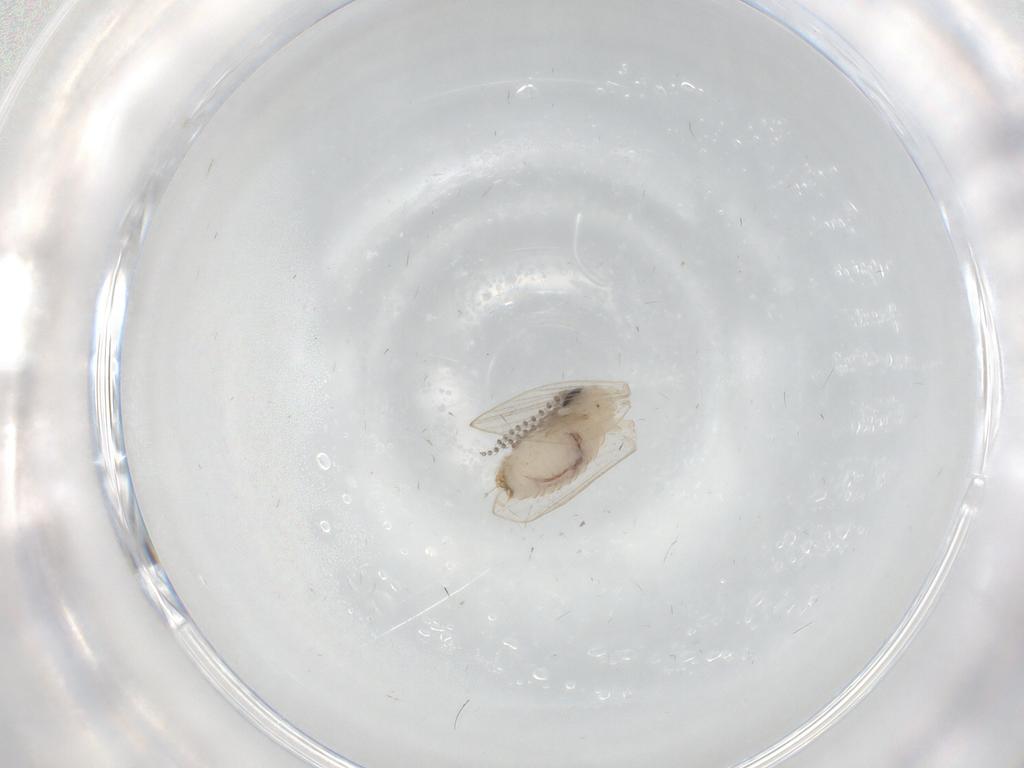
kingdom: Animalia
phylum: Arthropoda
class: Insecta
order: Diptera
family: Psychodidae
